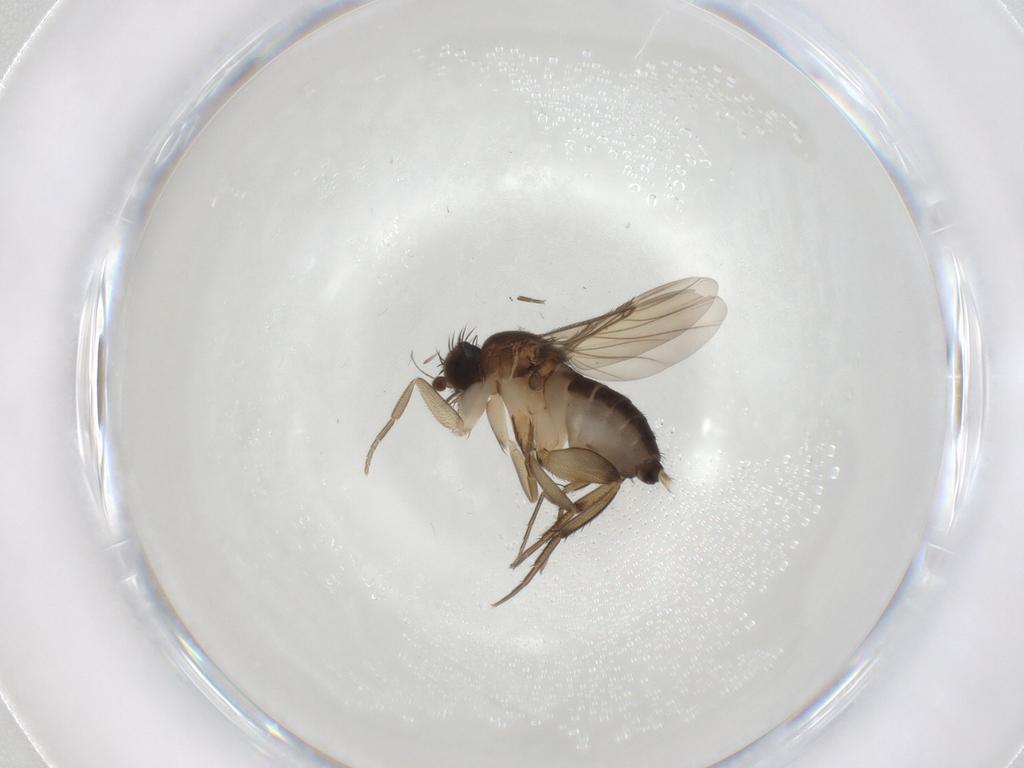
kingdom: Animalia
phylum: Arthropoda
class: Insecta
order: Diptera
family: Phoridae
